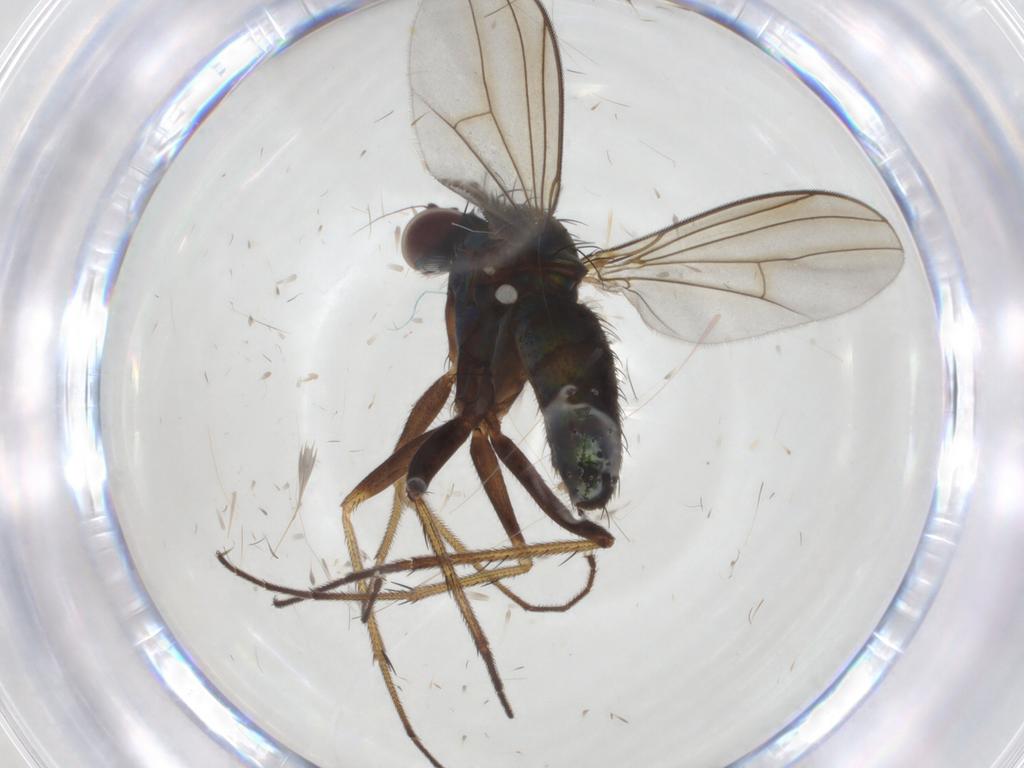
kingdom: Animalia
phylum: Arthropoda
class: Insecta
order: Diptera
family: Dolichopodidae
